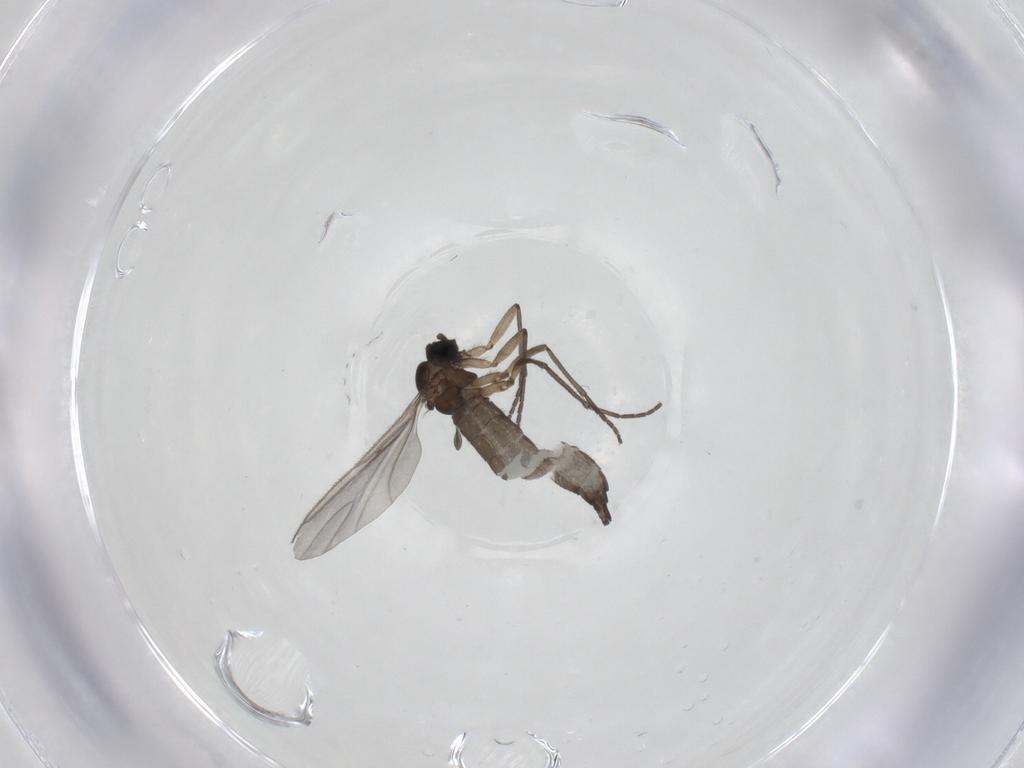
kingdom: Animalia
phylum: Arthropoda
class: Insecta
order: Diptera
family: Sciaridae
